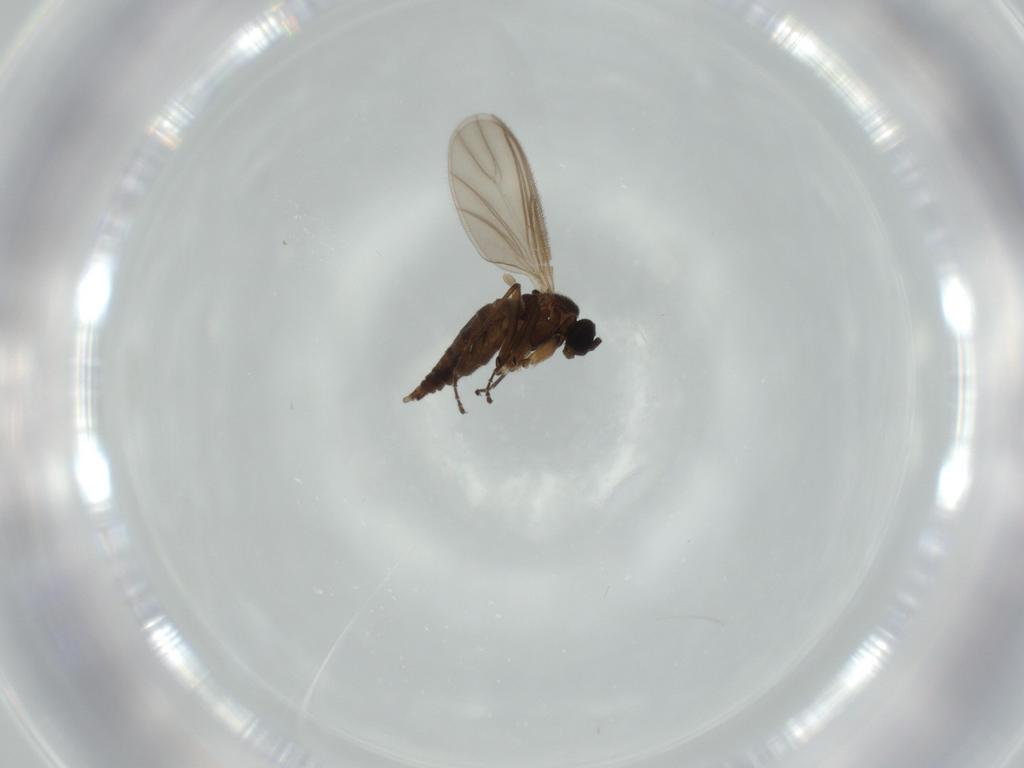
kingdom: Animalia
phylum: Arthropoda
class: Insecta
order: Diptera
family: Sciaridae
